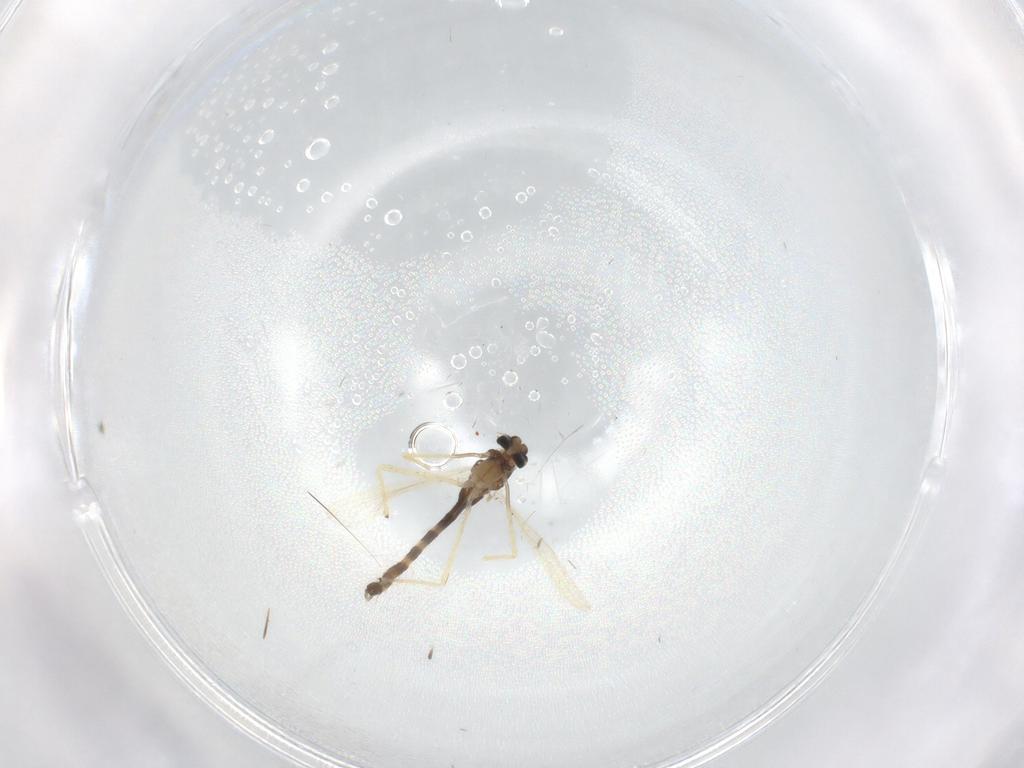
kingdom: Animalia
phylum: Arthropoda
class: Insecta
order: Diptera
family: Chironomidae
